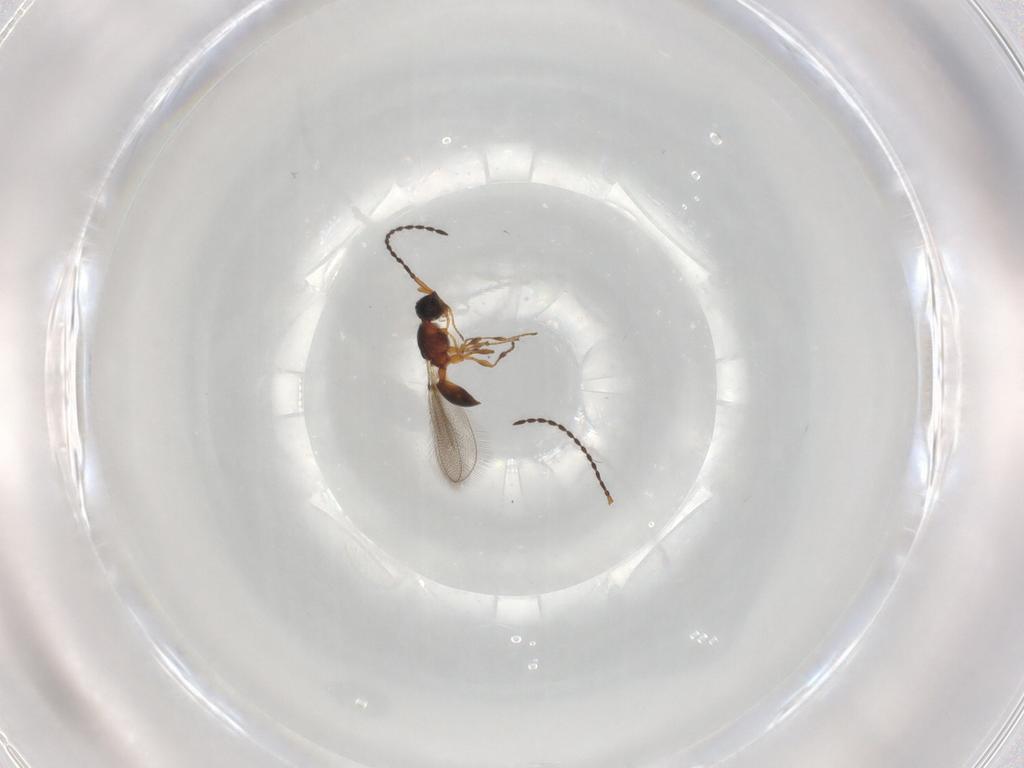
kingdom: Animalia
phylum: Arthropoda
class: Insecta
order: Hymenoptera
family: Diapriidae
